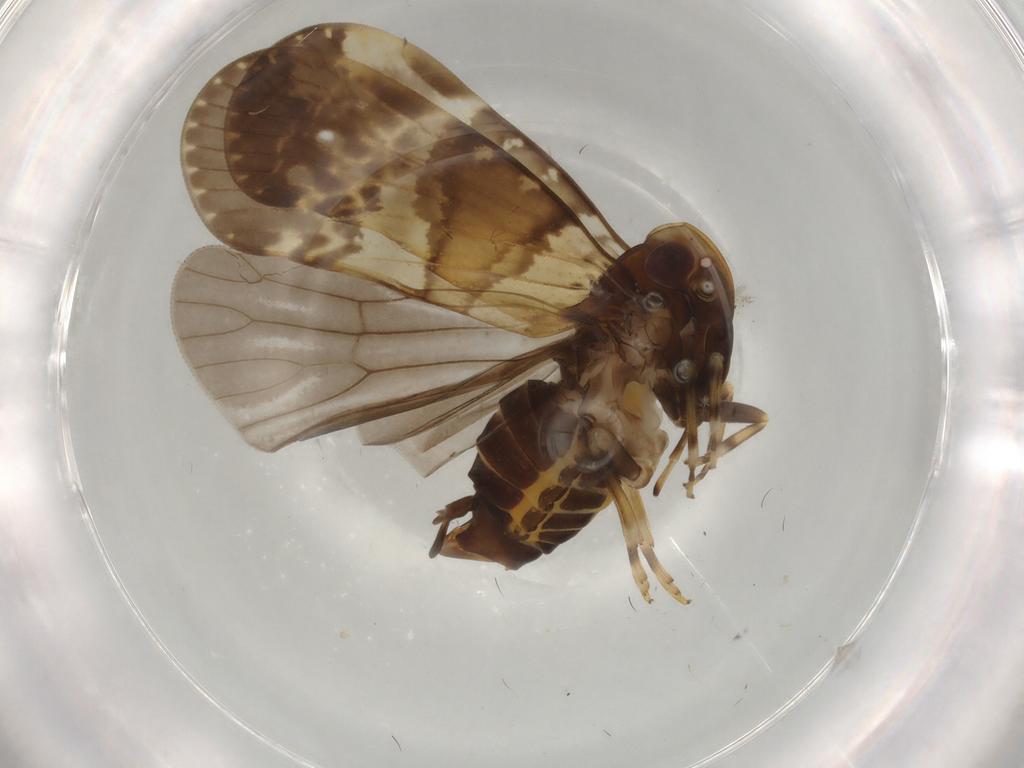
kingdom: Animalia
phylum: Arthropoda
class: Insecta
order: Hemiptera
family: Cixiidae
